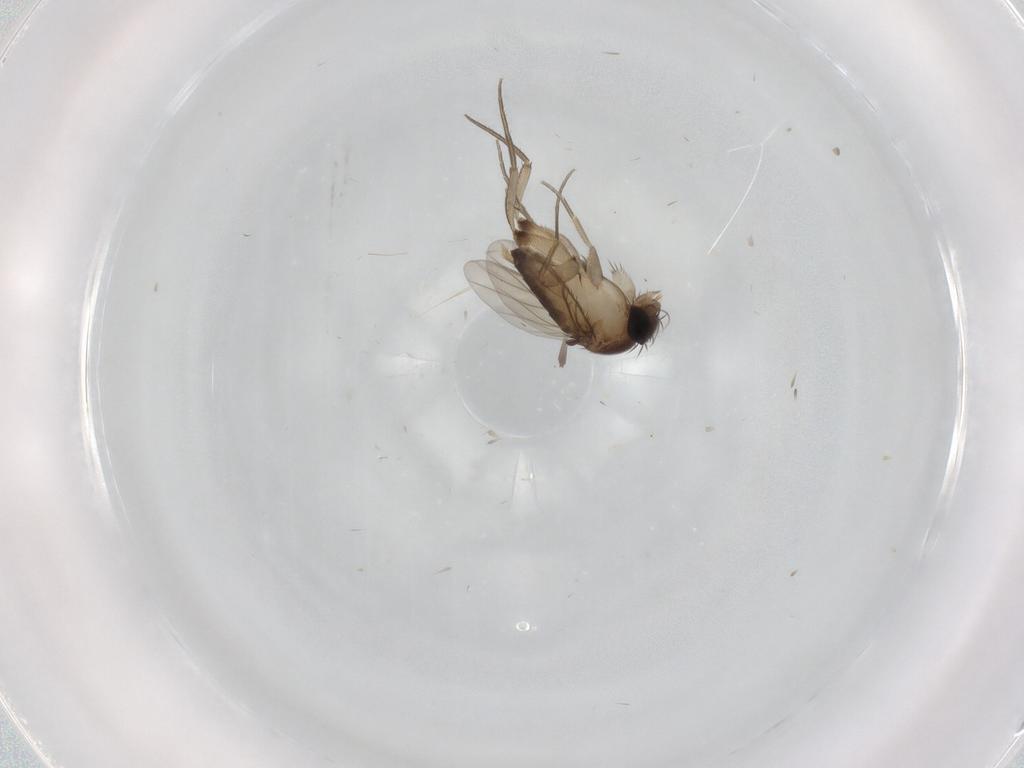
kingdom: Animalia
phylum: Arthropoda
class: Insecta
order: Diptera
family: Phoridae
